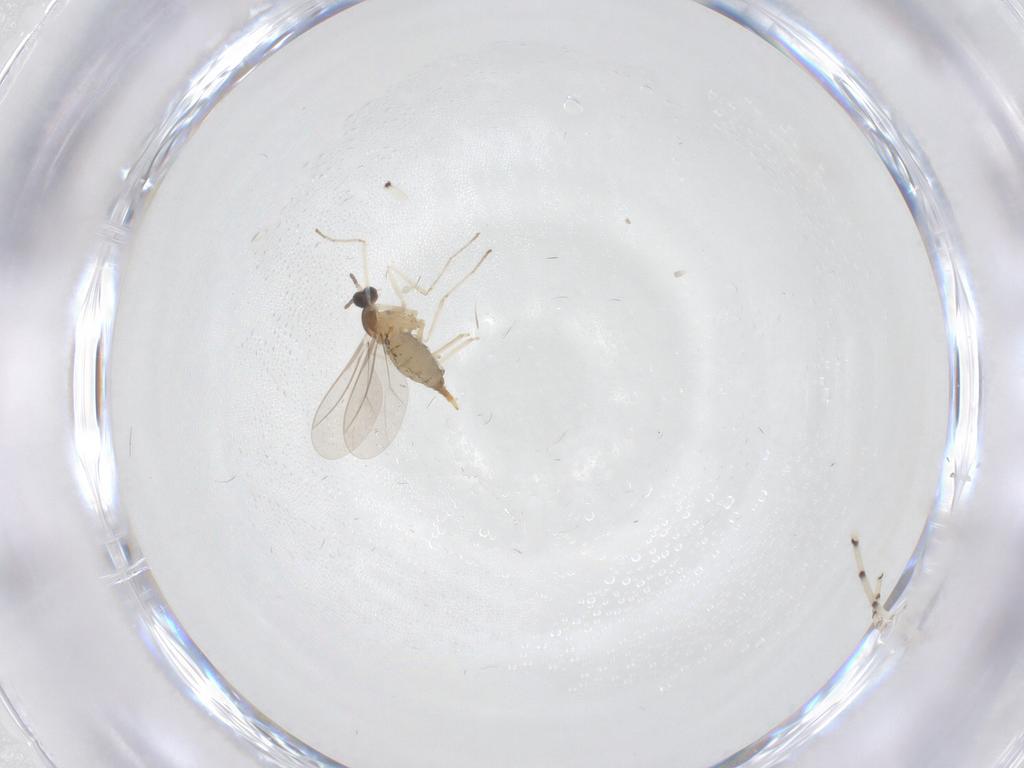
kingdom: Animalia
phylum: Arthropoda
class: Insecta
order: Diptera
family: Cecidomyiidae
